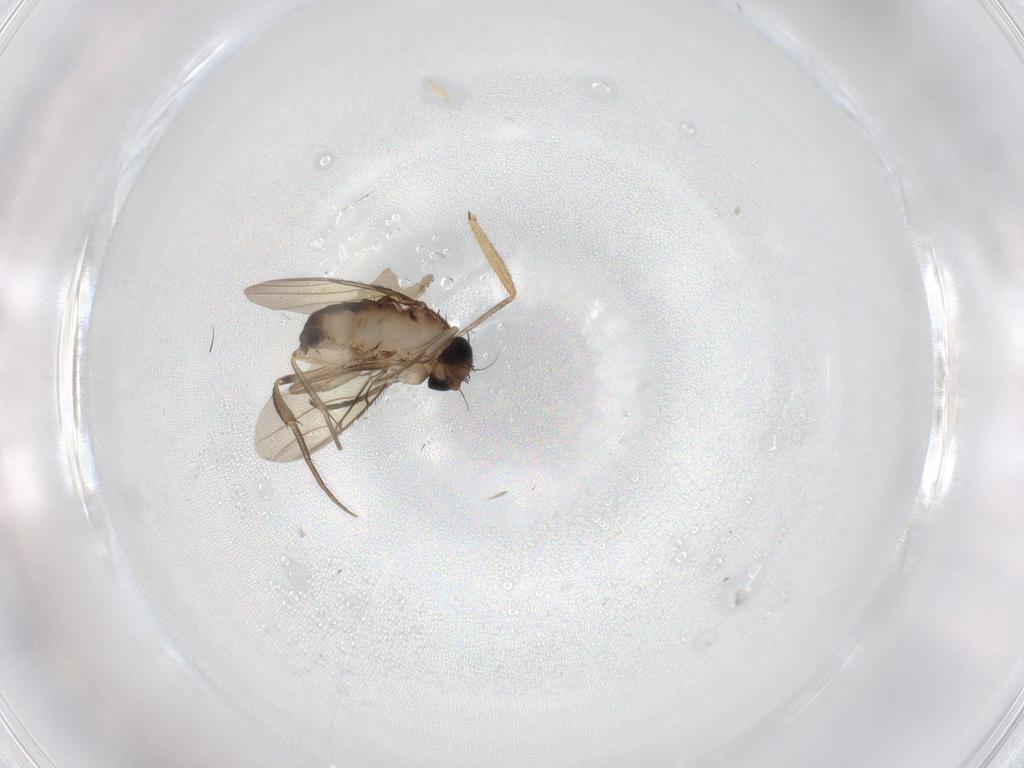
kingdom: Animalia
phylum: Arthropoda
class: Insecta
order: Diptera
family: Phoridae
